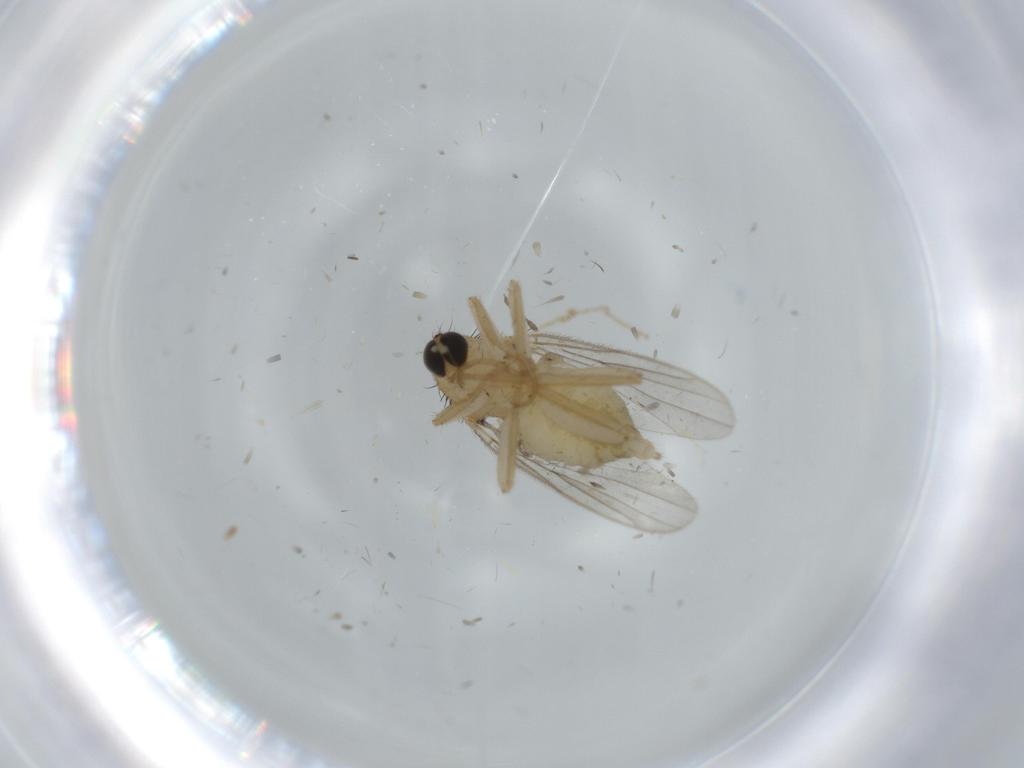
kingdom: Animalia
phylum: Arthropoda
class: Insecta
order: Diptera
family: Hybotidae
